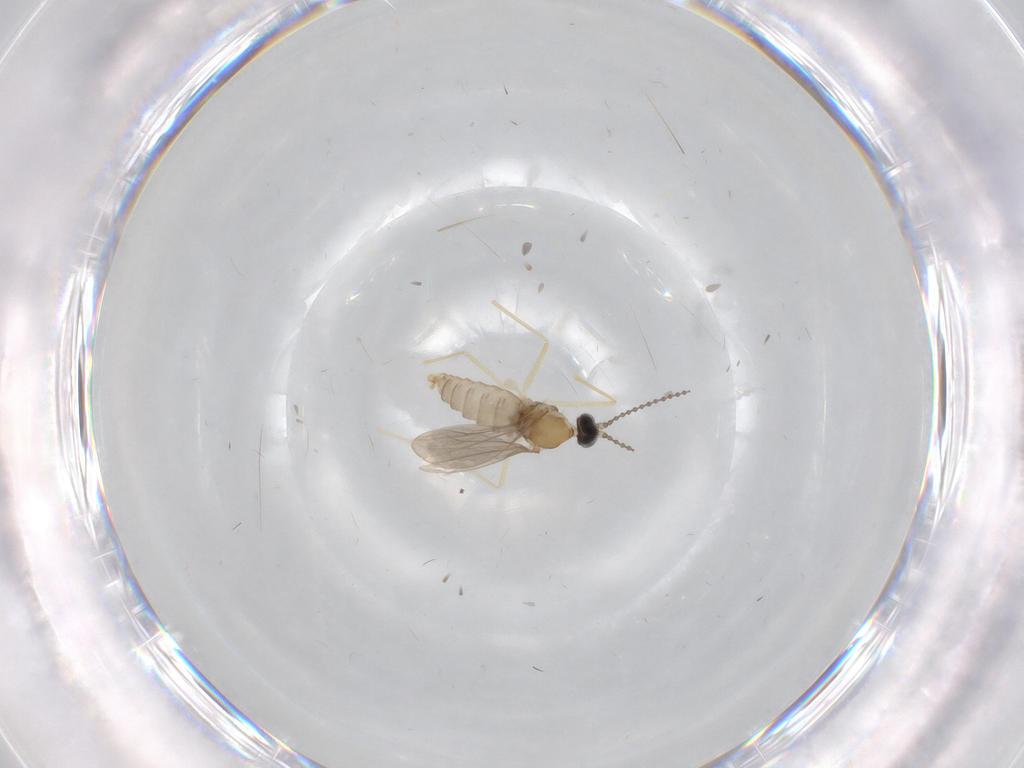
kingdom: Animalia
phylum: Arthropoda
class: Insecta
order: Diptera
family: Cecidomyiidae
